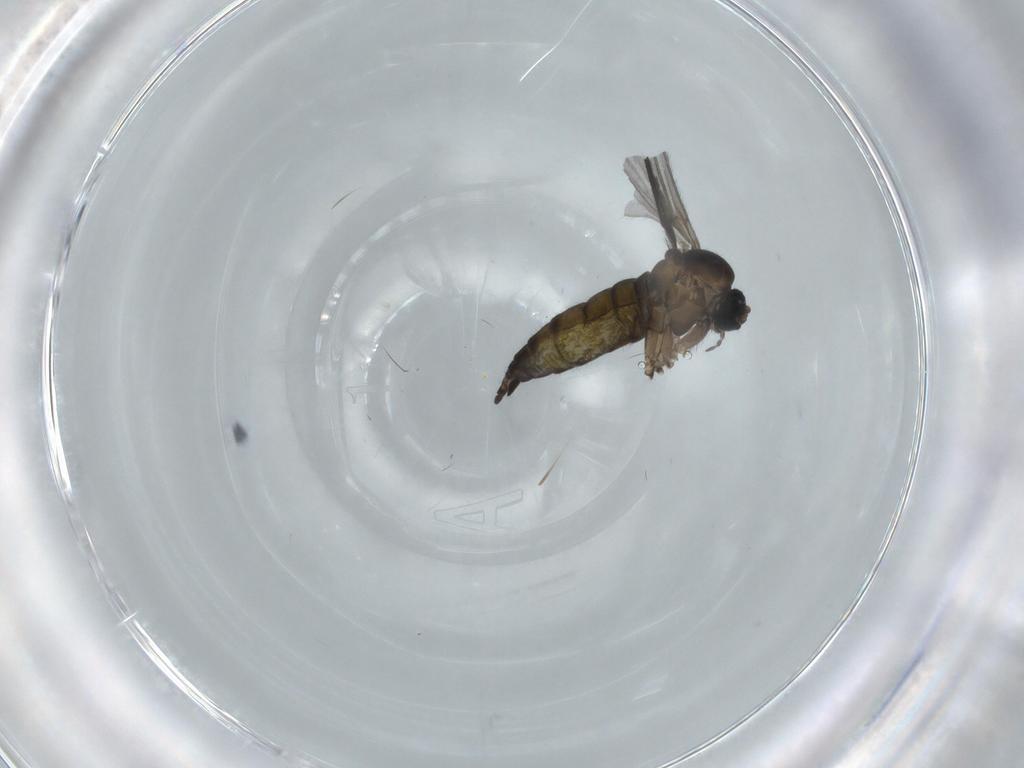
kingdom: Animalia
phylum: Arthropoda
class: Insecta
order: Diptera
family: Sciaridae
